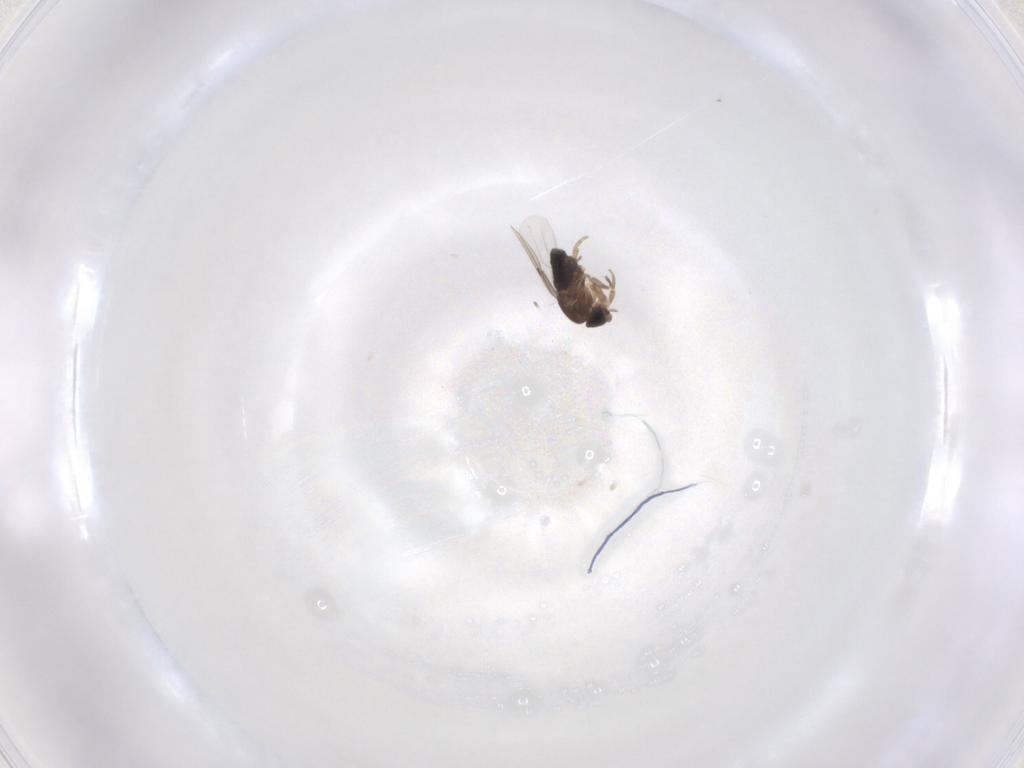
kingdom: Animalia
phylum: Arthropoda
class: Insecta
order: Diptera
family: Phoridae
